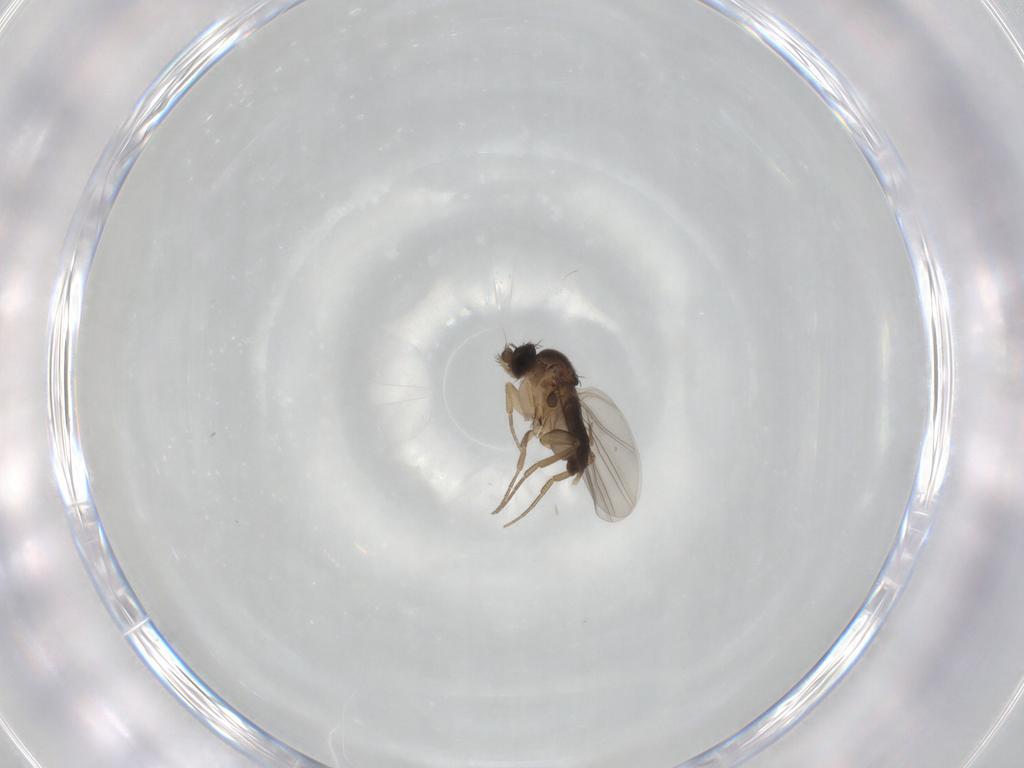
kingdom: Animalia
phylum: Arthropoda
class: Insecta
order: Diptera
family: Phoridae
